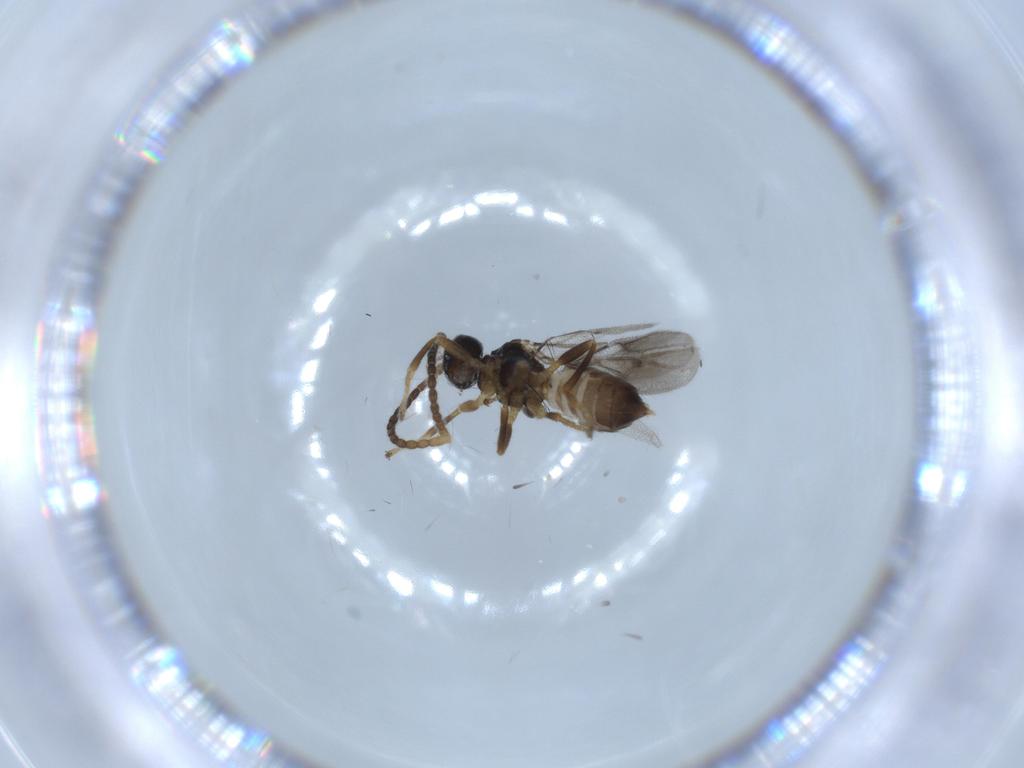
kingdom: Animalia
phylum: Arthropoda
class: Insecta
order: Hymenoptera
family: Braconidae
